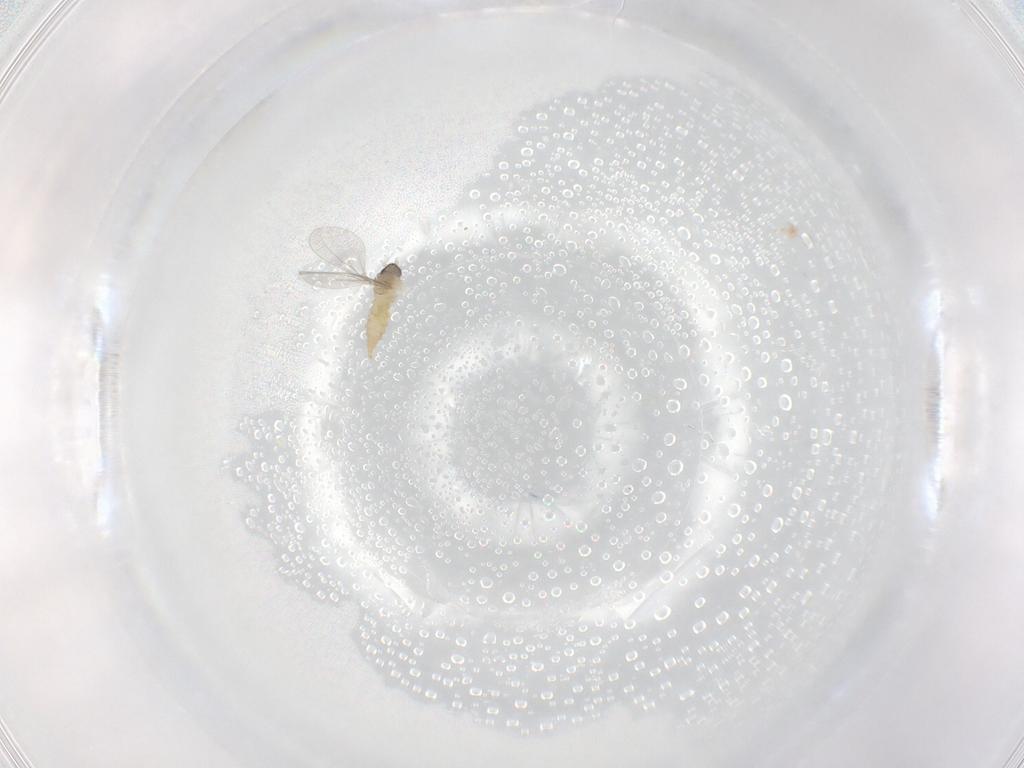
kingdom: Animalia
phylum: Arthropoda
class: Insecta
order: Diptera
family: Cecidomyiidae
